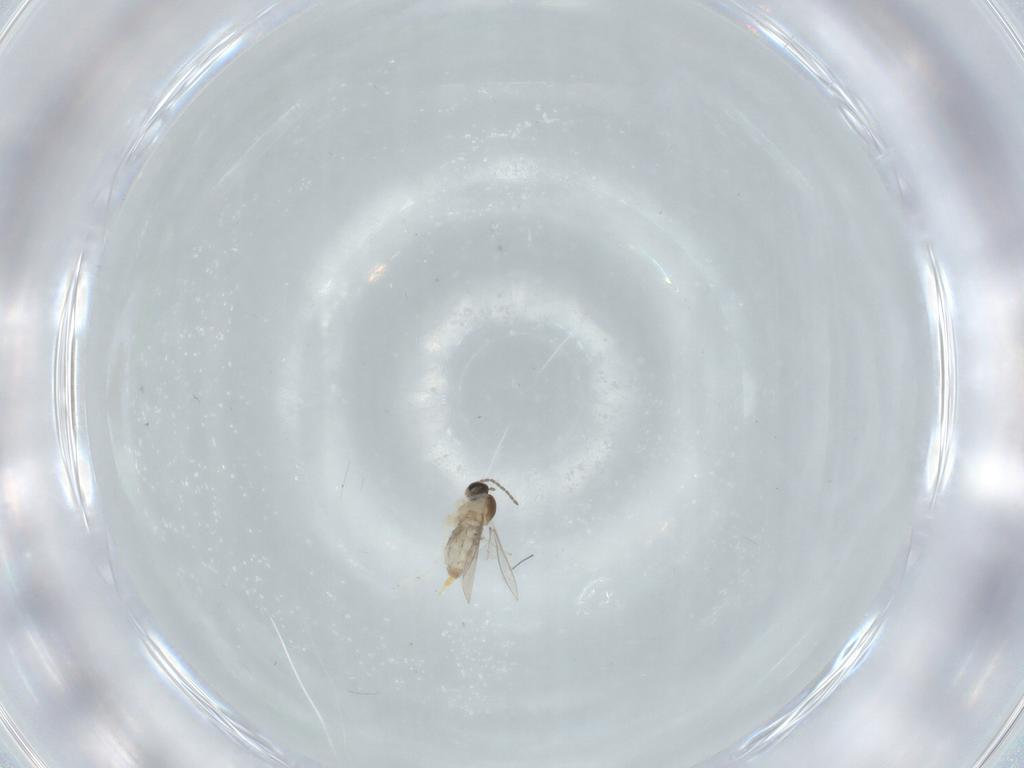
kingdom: Animalia
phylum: Arthropoda
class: Insecta
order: Diptera
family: Cecidomyiidae
